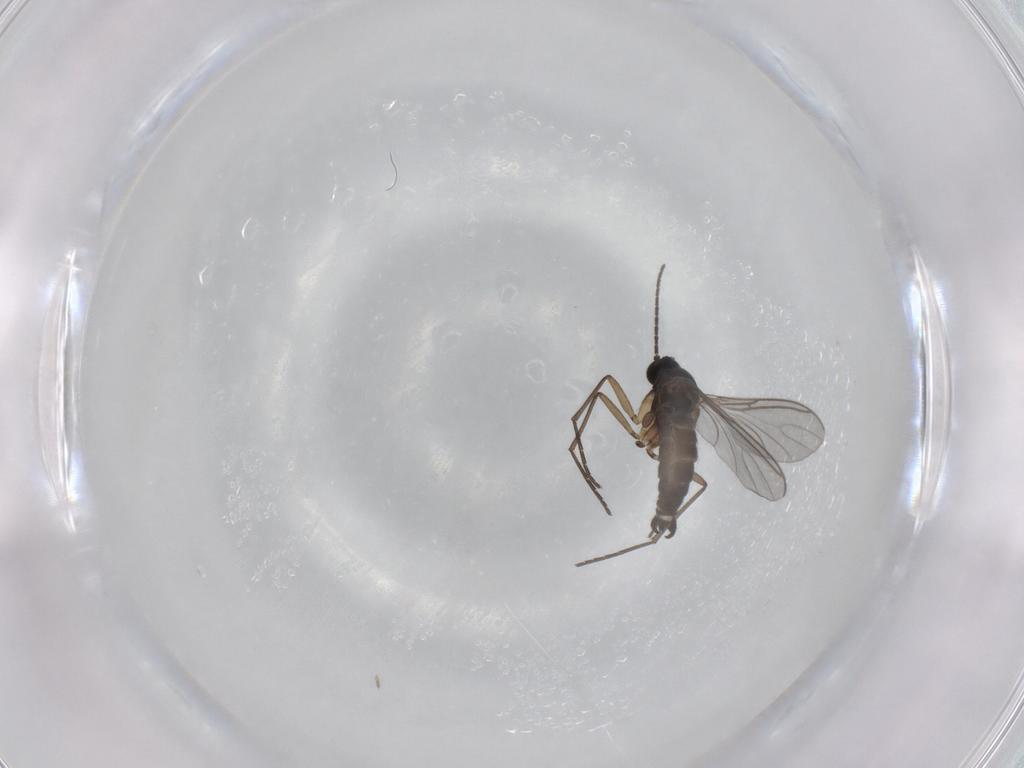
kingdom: Animalia
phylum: Arthropoda
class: Insecta
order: Diptera
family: Sciaridae
